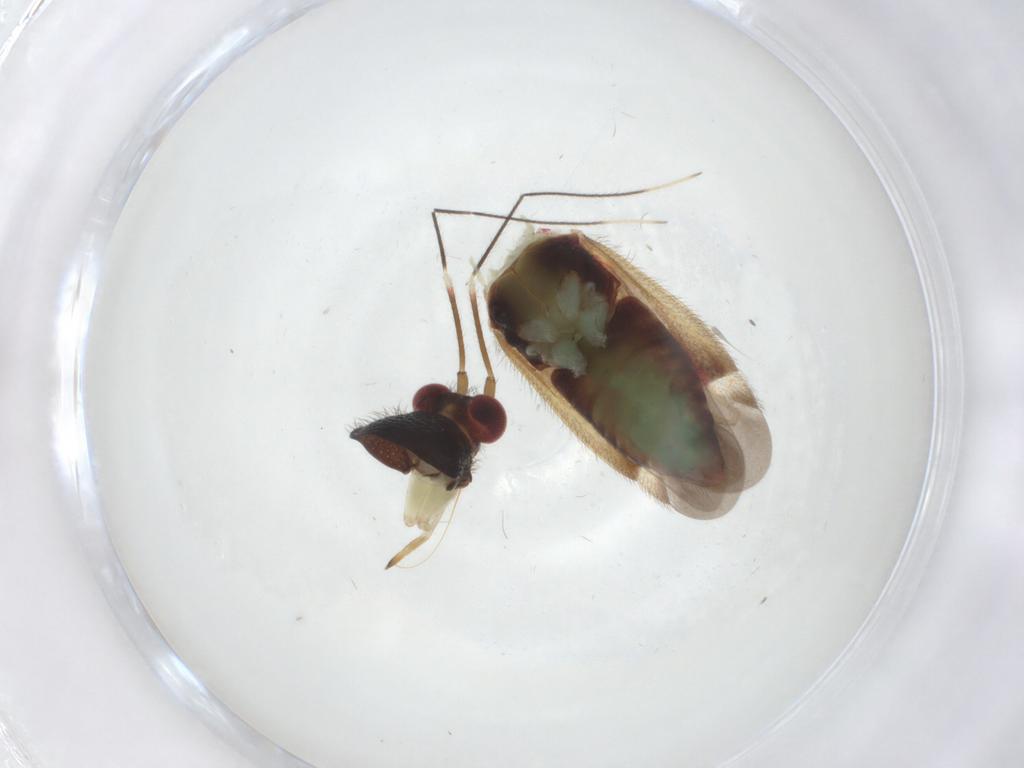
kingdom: Animalia
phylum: Arthropoda
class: Insecta
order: Hemiptera
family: Miridae
